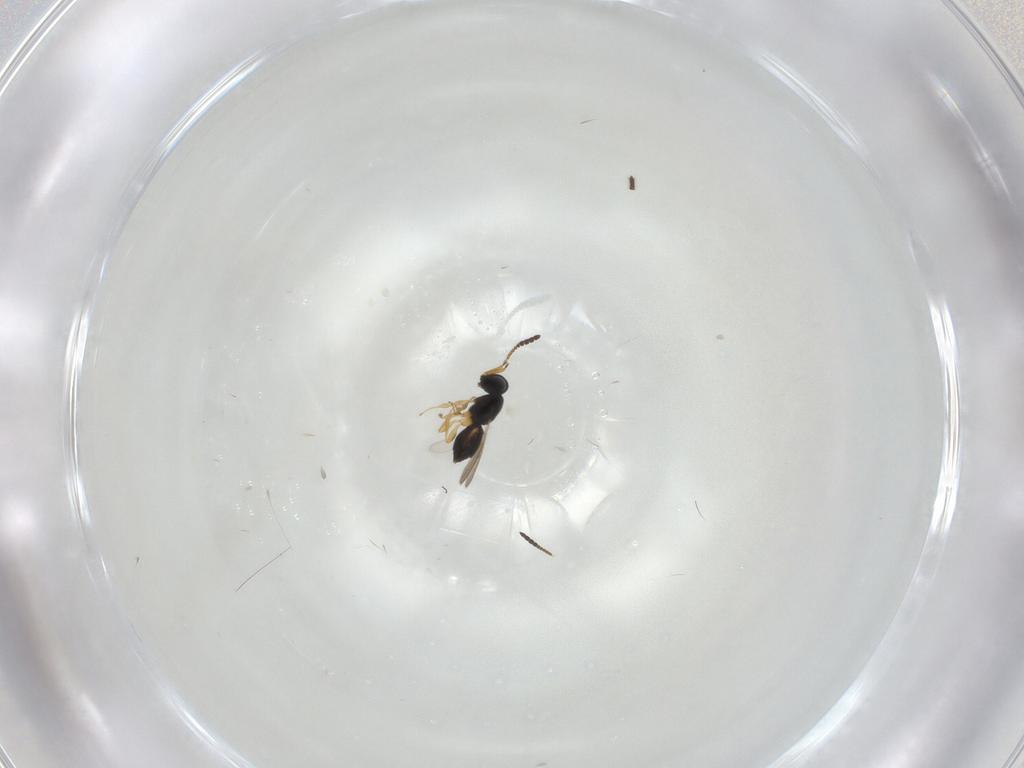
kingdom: Animalia
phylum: Arthropoda
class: Insecta
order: Hymenoptera
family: Scelionidae
